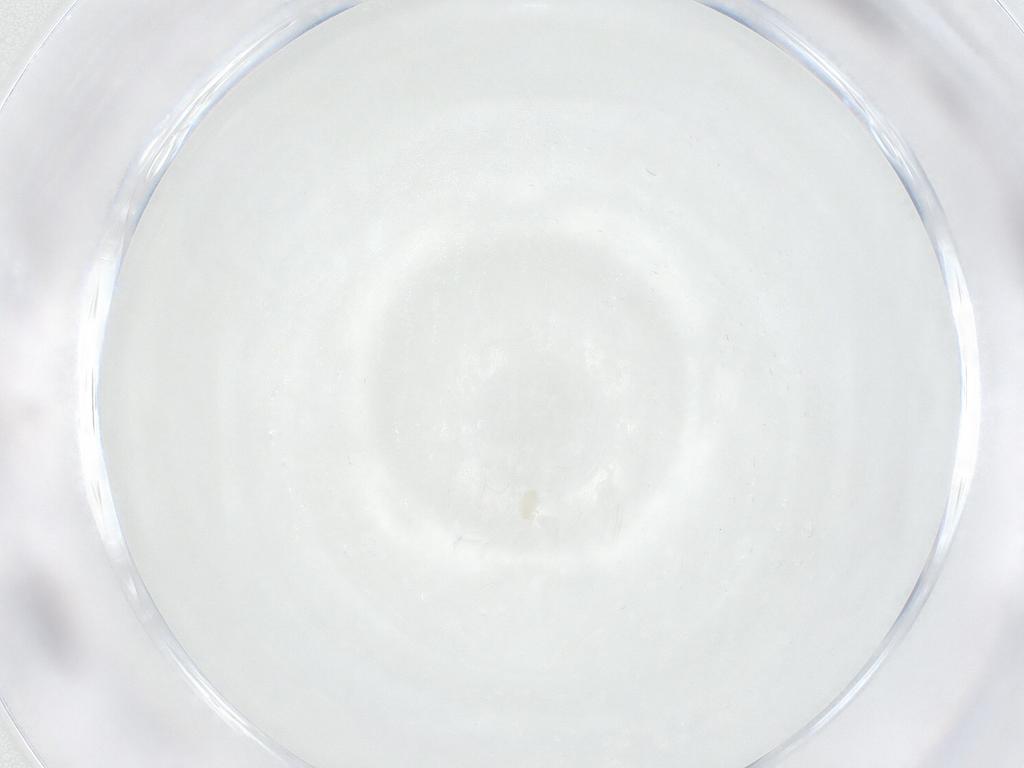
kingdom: Animalia
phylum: Arthropoda
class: Arachnida
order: Sarcoptiformes
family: Nanorchestidae
